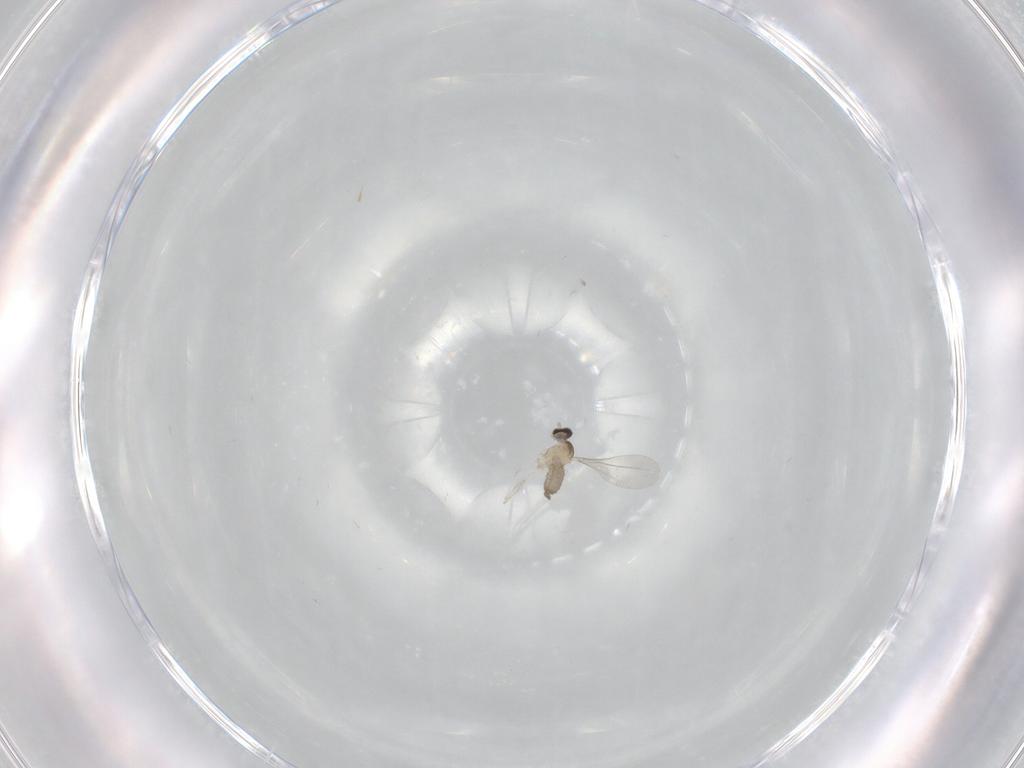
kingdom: Animalia
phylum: Arthropoda
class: Insecta
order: Diptera
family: Cecidomyiidae
